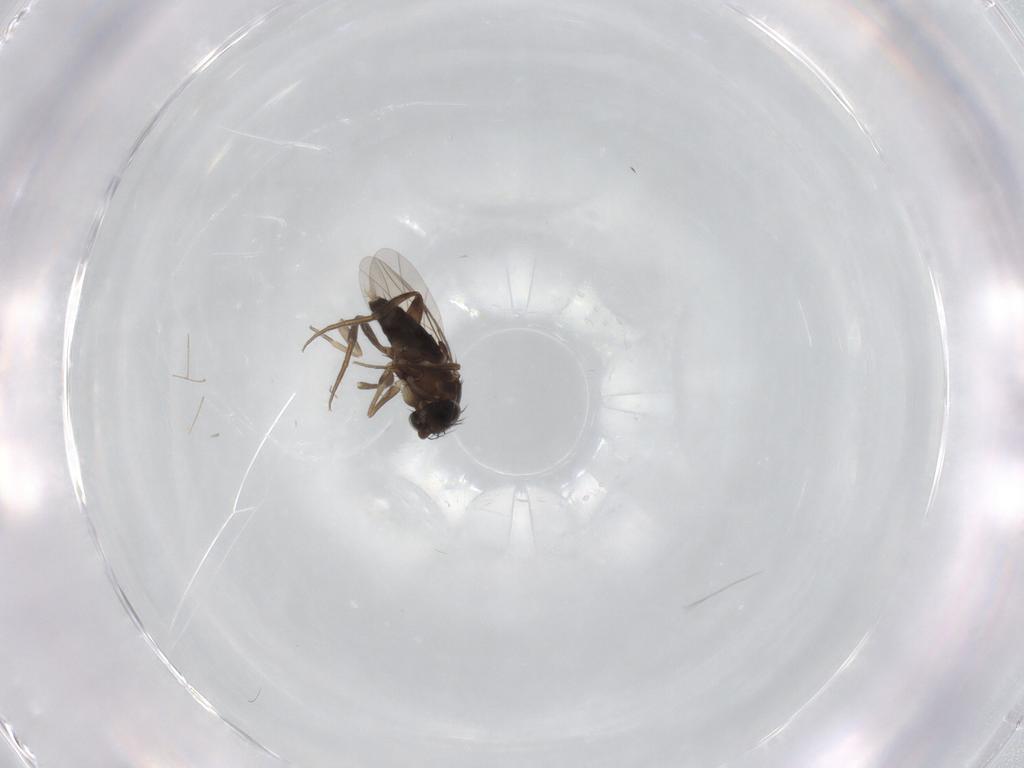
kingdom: Animalia
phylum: Arthropoda
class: Insecta
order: Diptera
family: Phoridae
